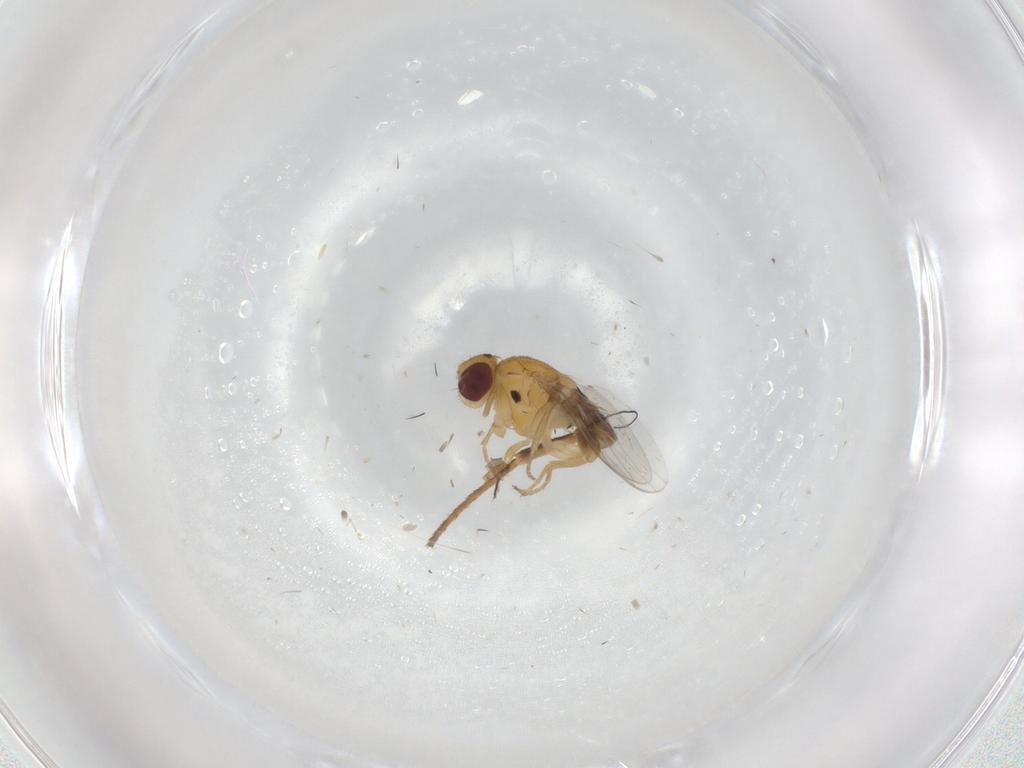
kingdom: Animalia
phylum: Arthropoda
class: Insecta
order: Diptera
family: Chloropidae
